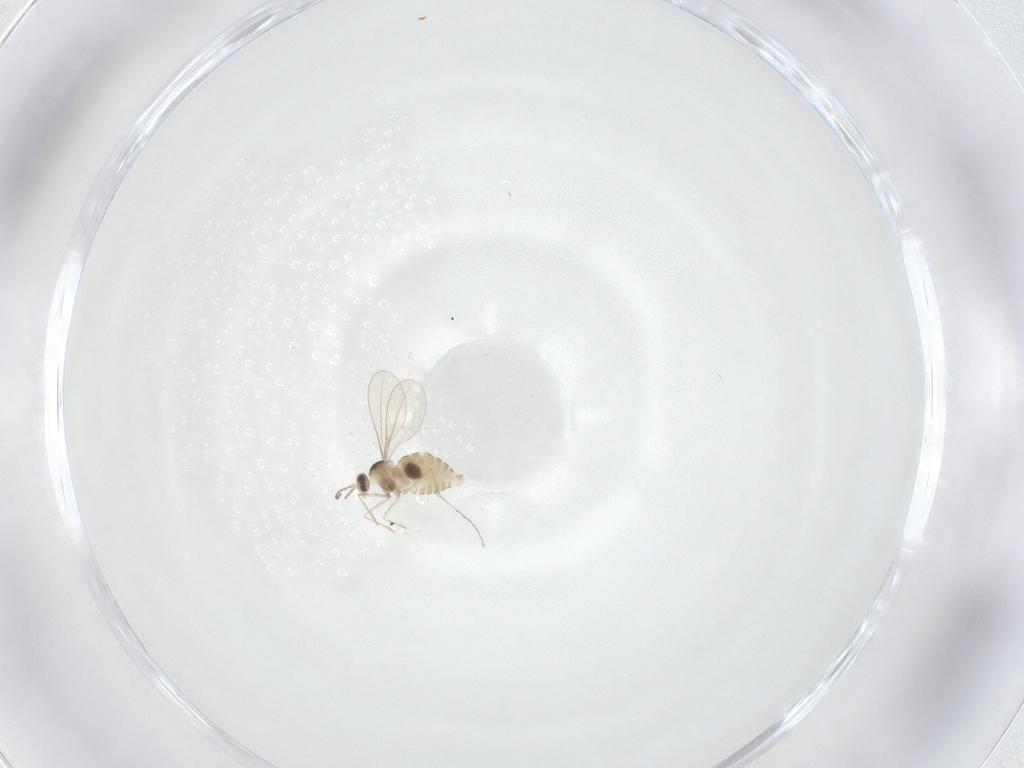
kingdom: Animalia
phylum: Arthropoda
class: Insecta
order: Diptera
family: Cecidomyiidae
